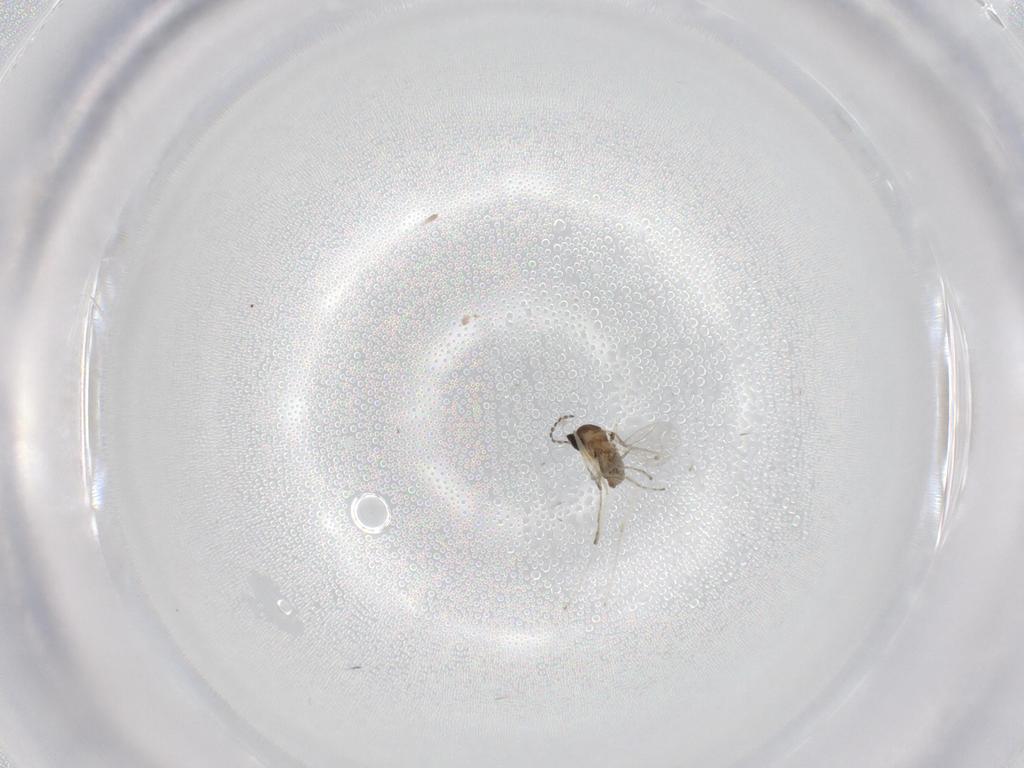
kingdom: Animalia
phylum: Arthropoda
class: Insecta
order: Diptera
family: Cecidomyiidae
